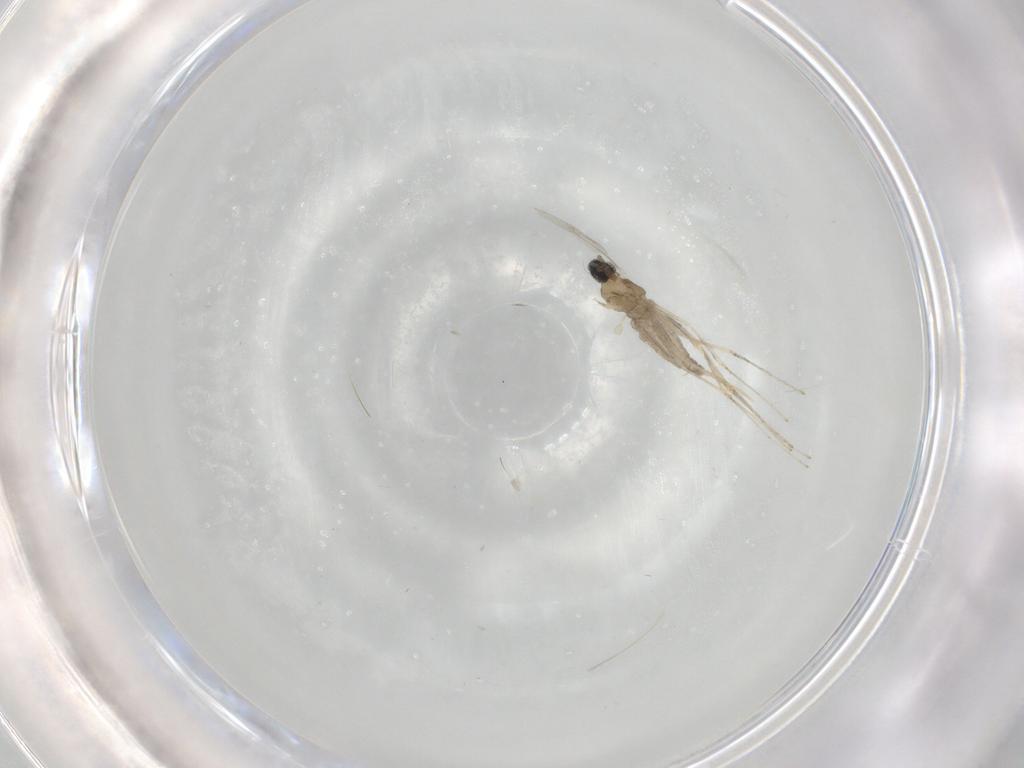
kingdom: Animalia
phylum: Arthropoda
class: Insecta
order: Diptera
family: Cecidomyiidae
